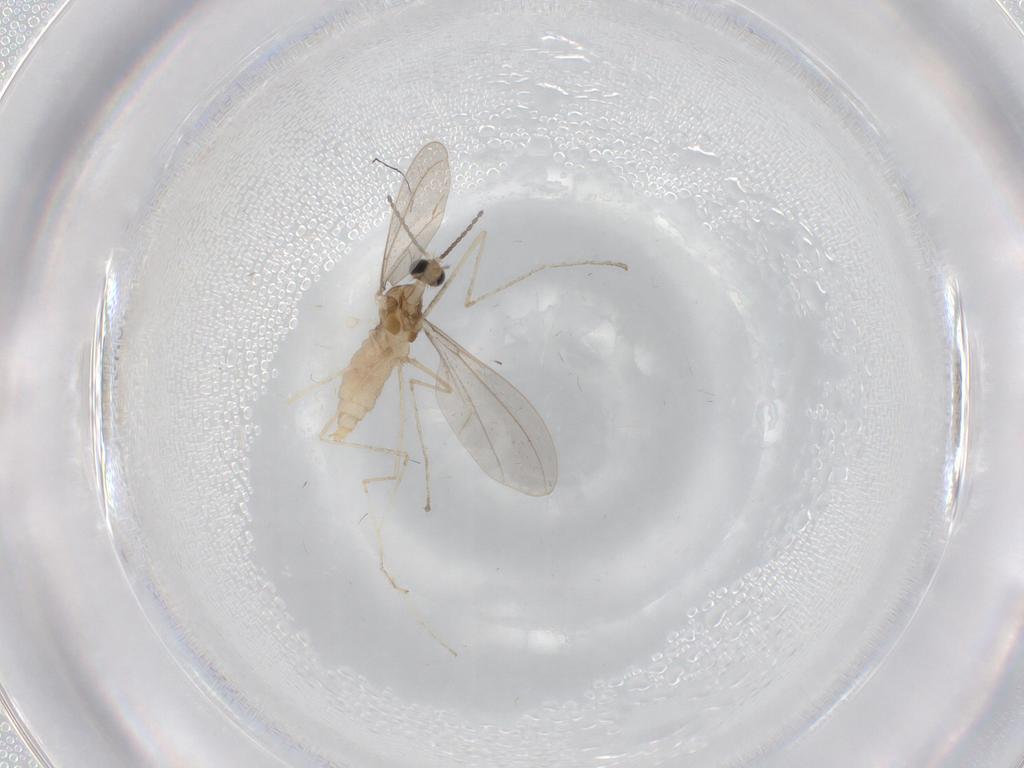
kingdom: Animalia
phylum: Arthropoda
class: Insecta
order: Diptera
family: Cecidomyiidae
